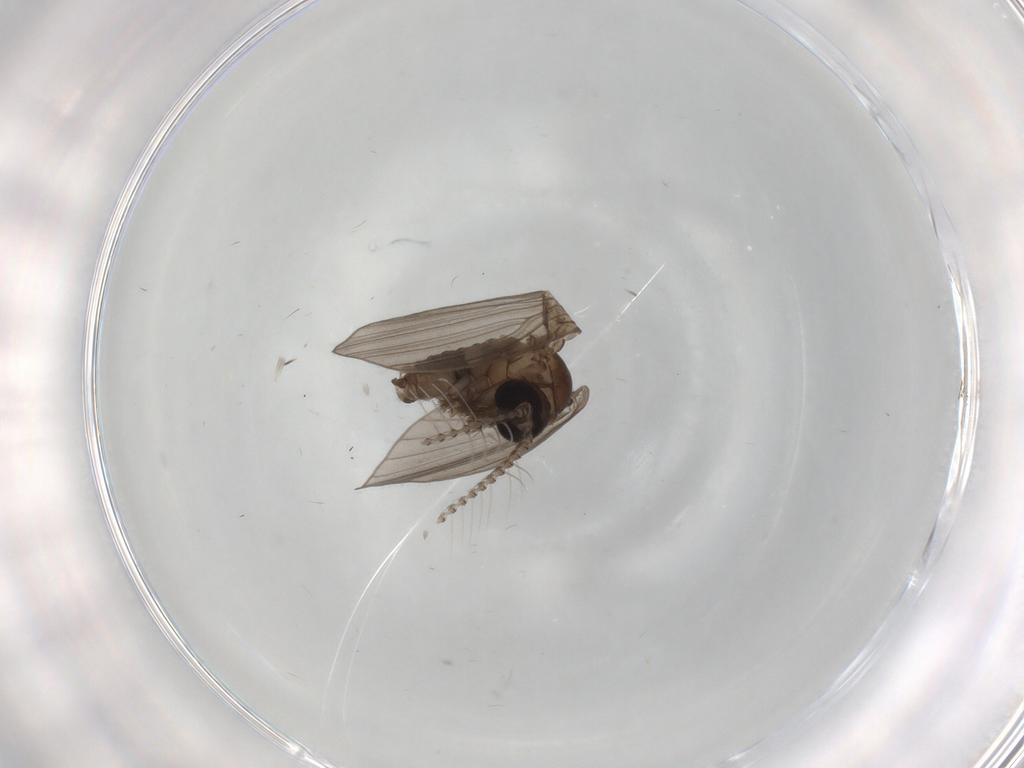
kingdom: Animalia
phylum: Arthropoda
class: Insecta
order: Diptera
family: Psychodidae
